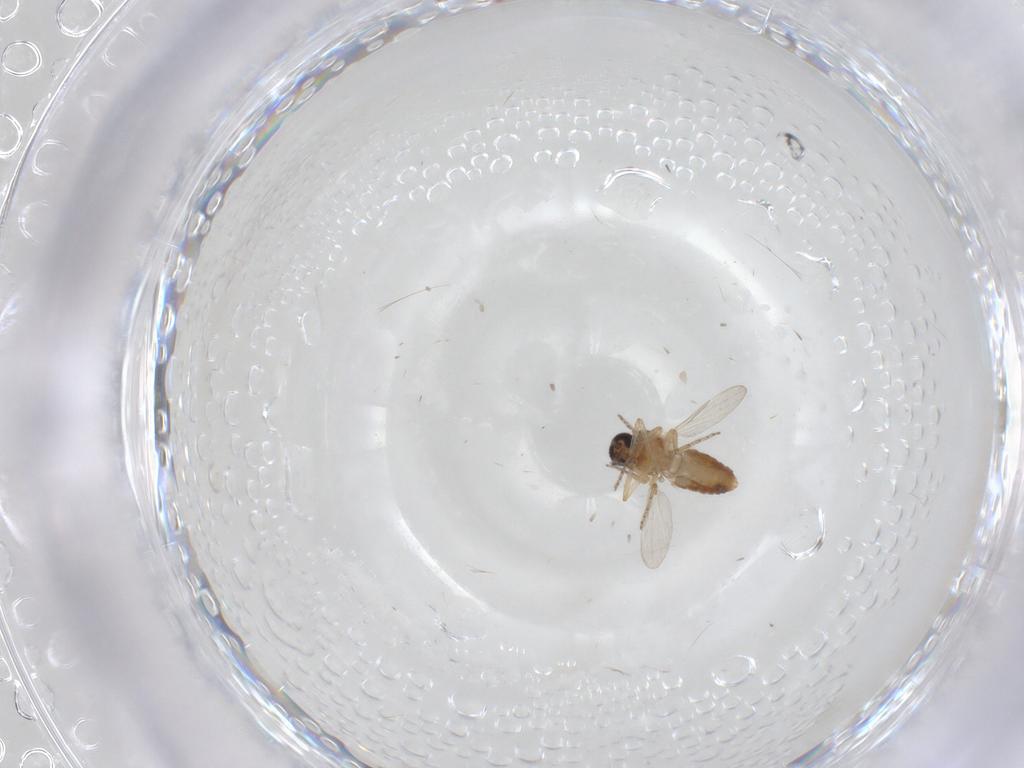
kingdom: Animalia
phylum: Arthropoda
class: Insecta
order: Diptera
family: Ceratopogonidae
